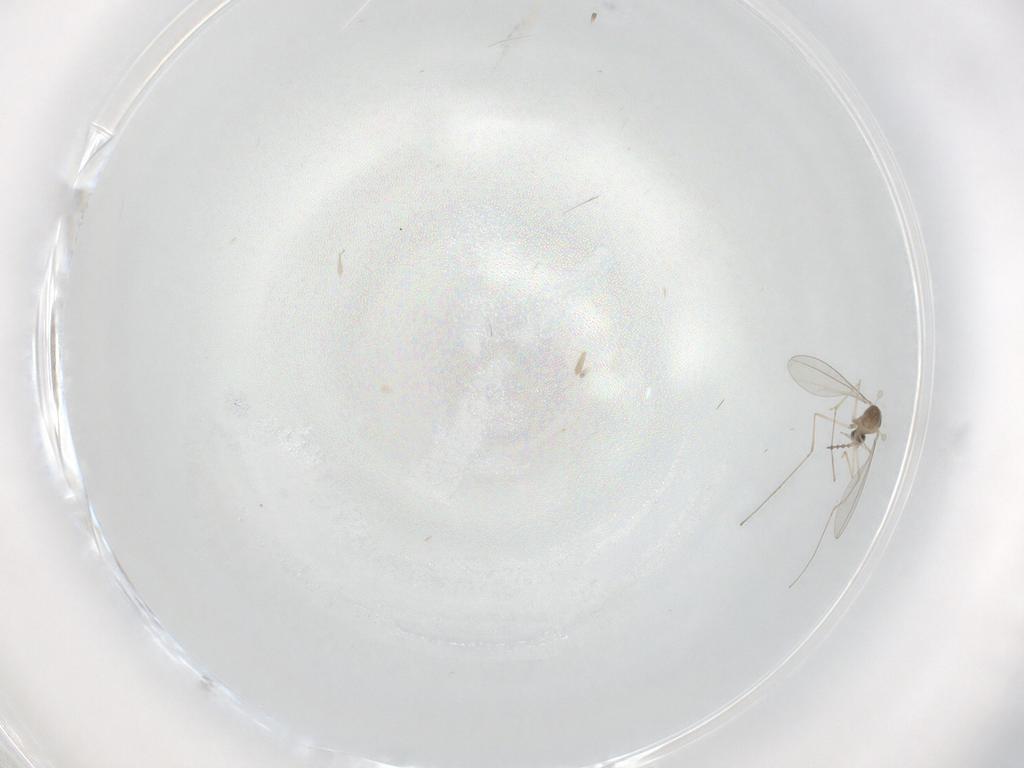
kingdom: Animalia
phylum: Arthropoda
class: Insecta
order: Diptera
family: Cecidomyiidae
